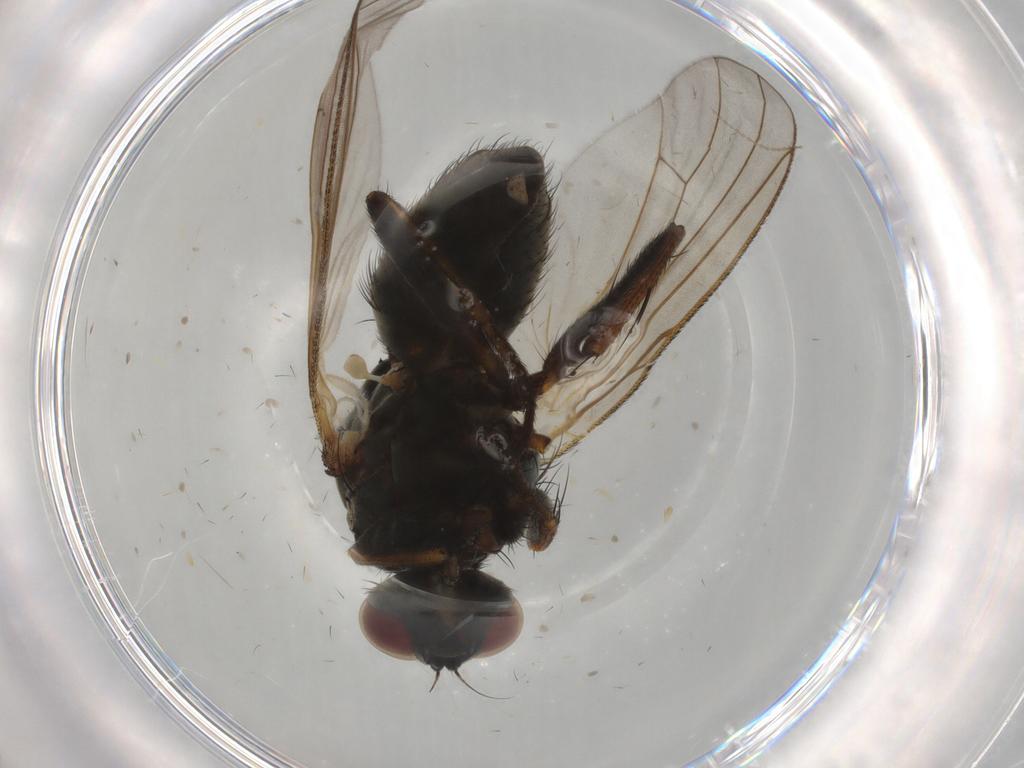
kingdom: Animalia
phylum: Arthropoda
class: Insecta
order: Diptera
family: Muscidae
